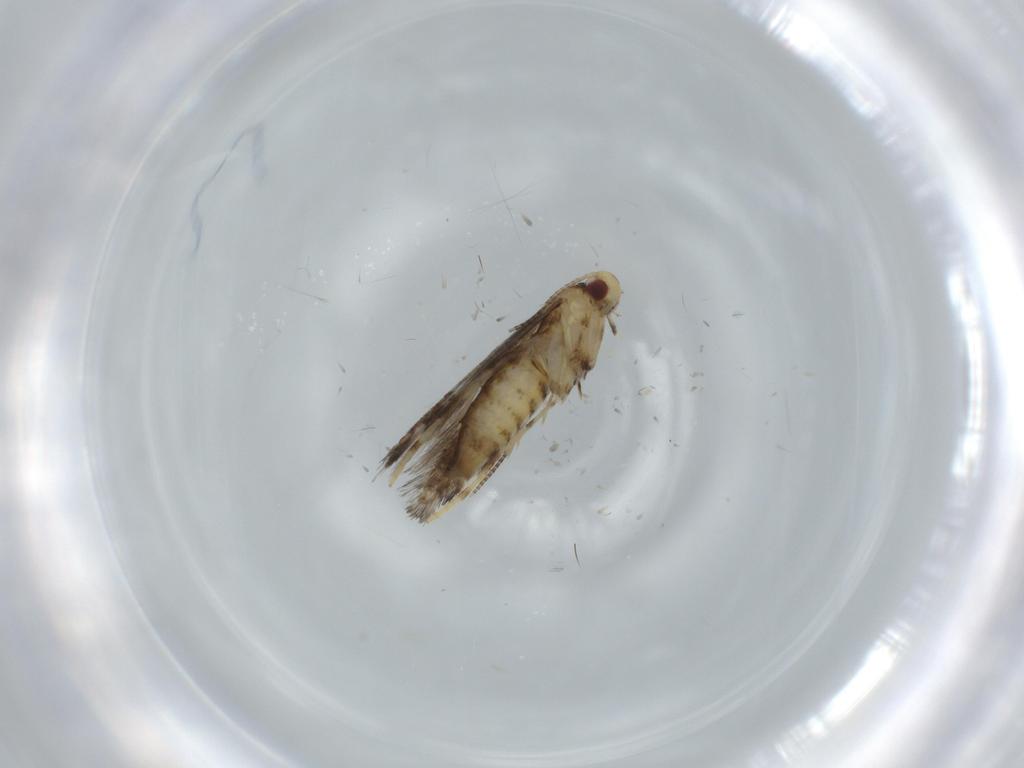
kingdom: Animalia
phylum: Arthropoda
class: Insecta
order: Lepidoptera
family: Gracillariidae
